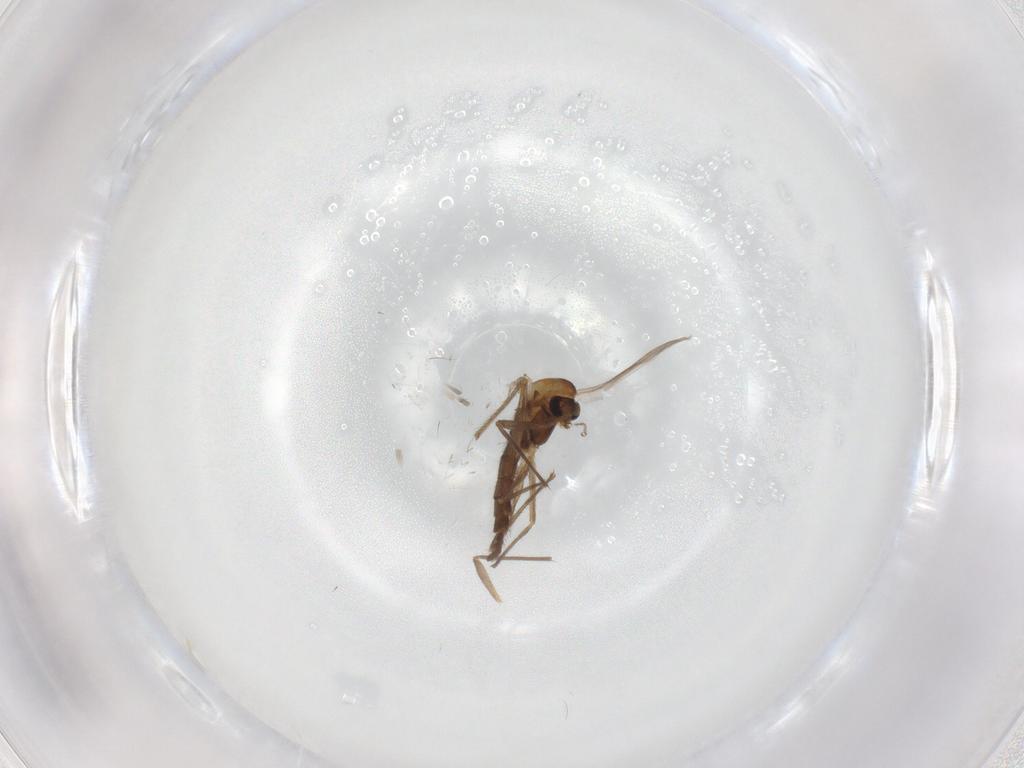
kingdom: Animalia
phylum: Arthropoda
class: Insecta
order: Diptera
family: Chironomidae
